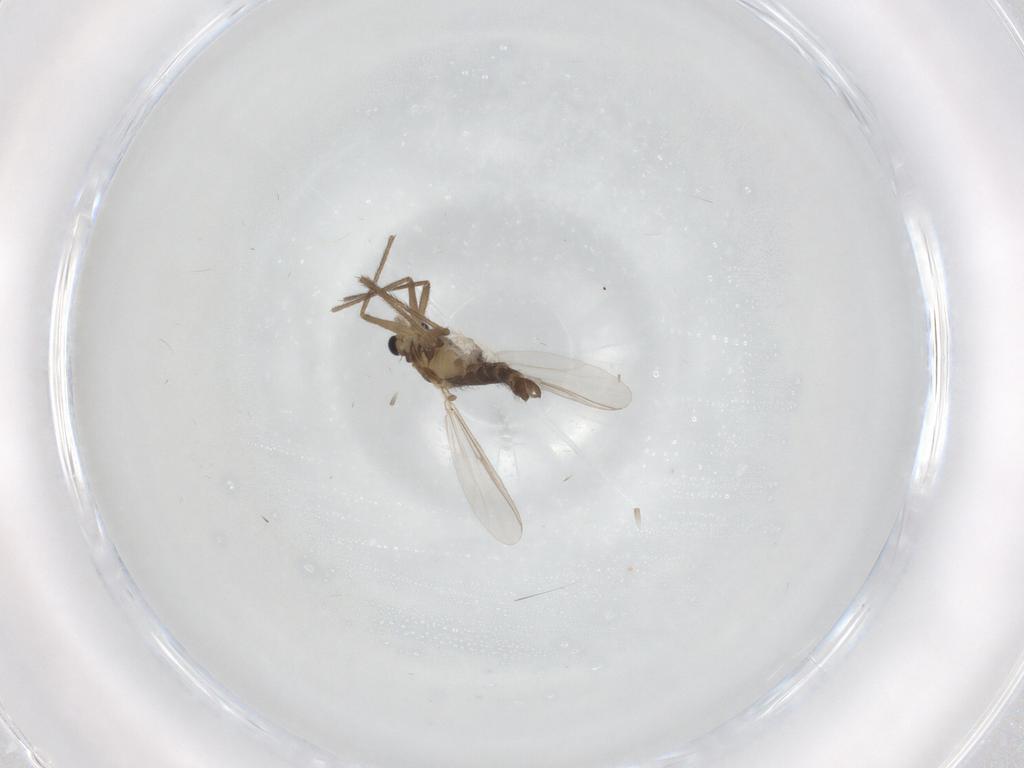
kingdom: Animalia
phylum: Arthropoda
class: Insecta
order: Diptera
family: Chironomidae
